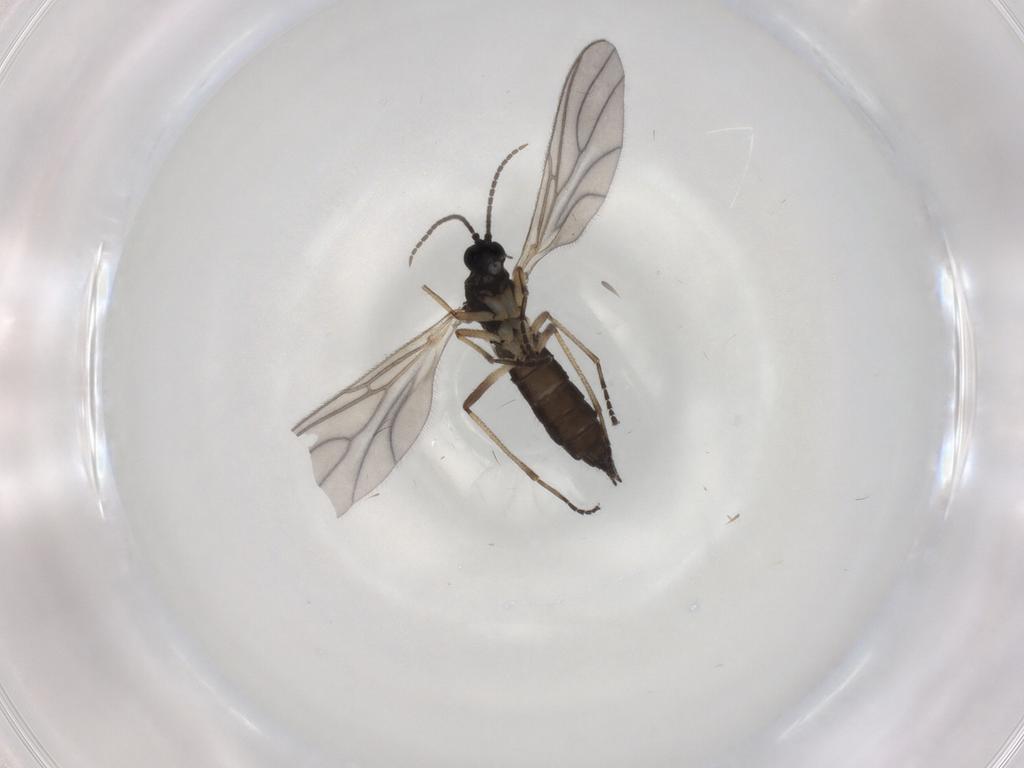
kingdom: Animalia
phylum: Arthropoda
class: Insecta
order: Diptera
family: Sciaridae
